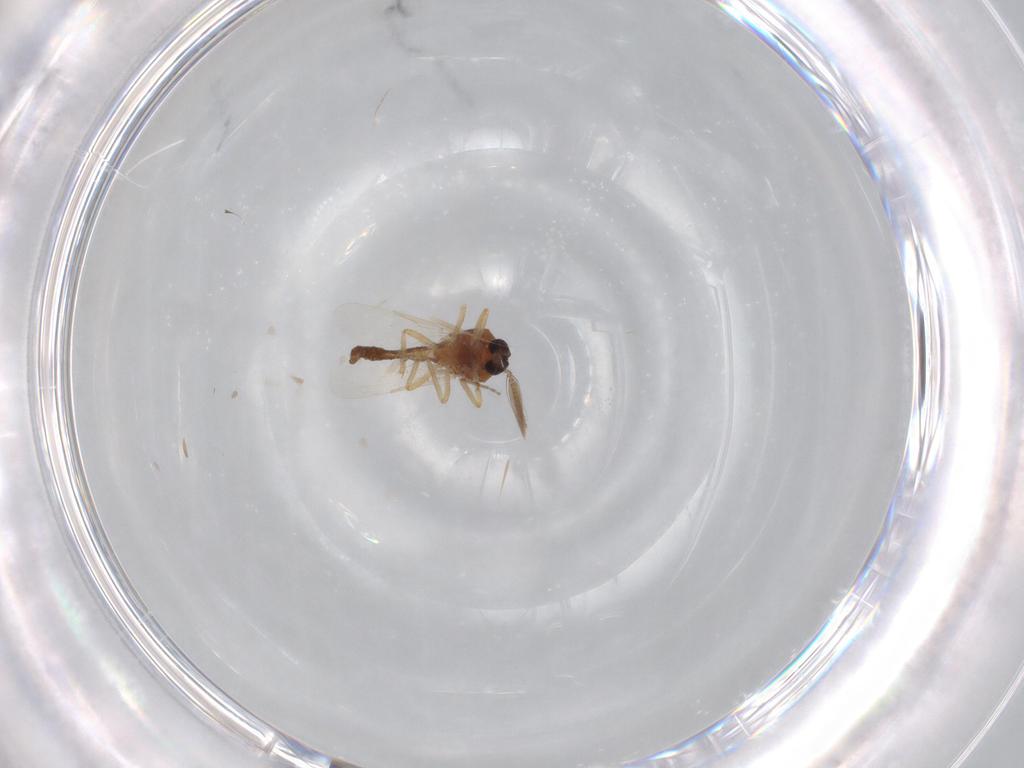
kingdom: Animalia
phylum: Arthropoda
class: Insecta
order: Diptera
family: Ceratopogonidae
